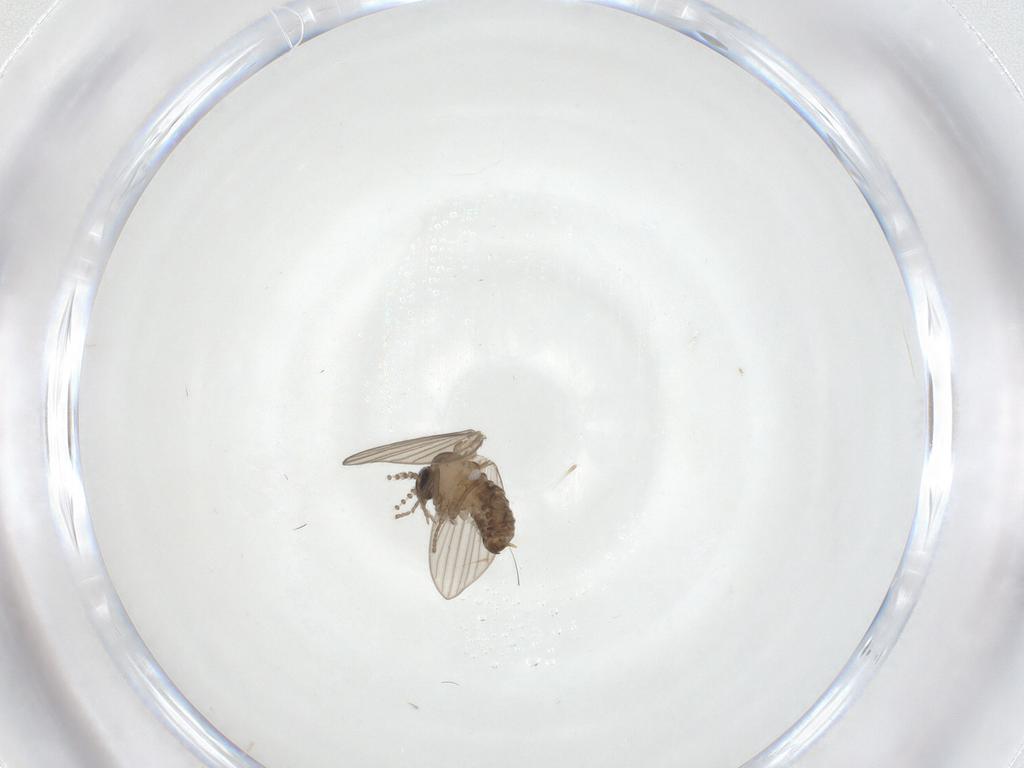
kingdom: Animalia
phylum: Arthropoda
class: Insecta
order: Diptera
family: Psychodidae
